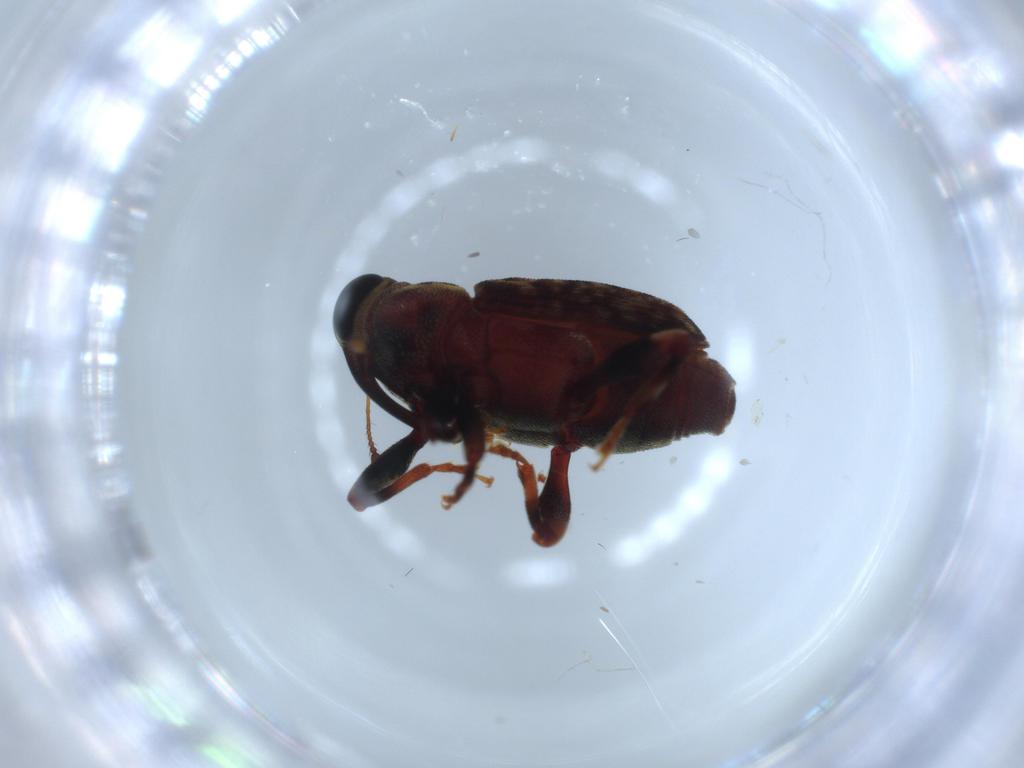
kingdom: Animalia
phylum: Arthropoda
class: Insecta
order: Coleoptera
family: Curculionidae
